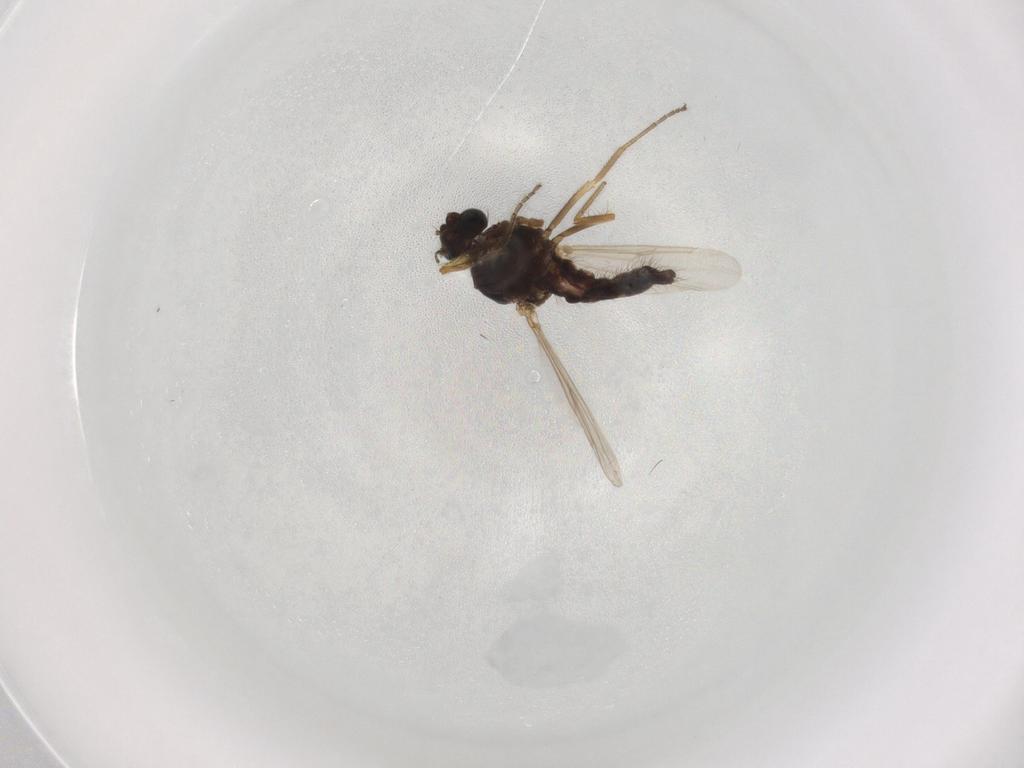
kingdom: Animalia
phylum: Arthropoda
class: Insecta
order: Diptera
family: Ceratopogonidae
